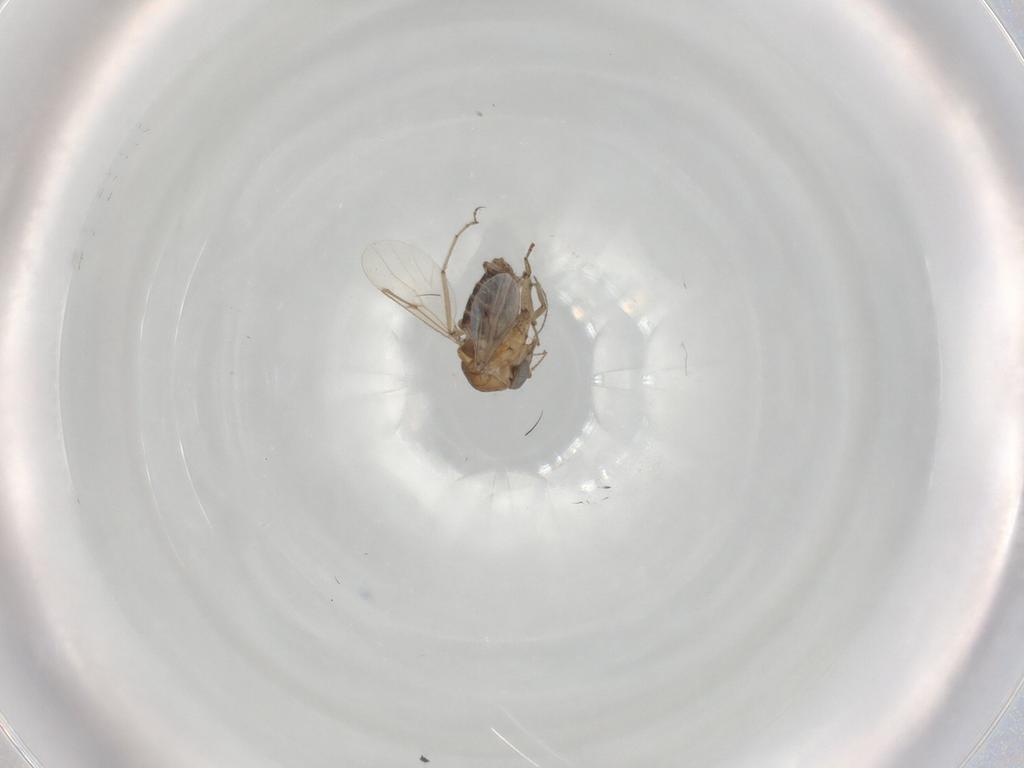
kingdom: Animalia
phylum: Arthropoda
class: Insecta
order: Diptera
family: Ceratopogonidae
